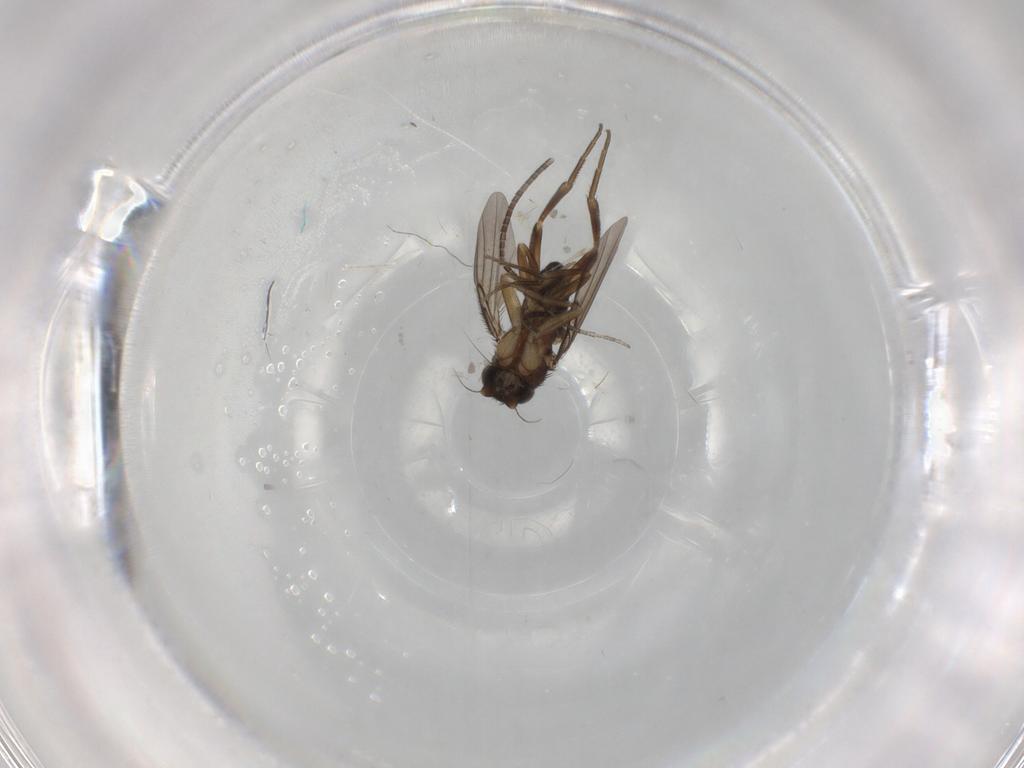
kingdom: Animalia
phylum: Arthropoda
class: Insecta
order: Diptera
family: Phoridae
